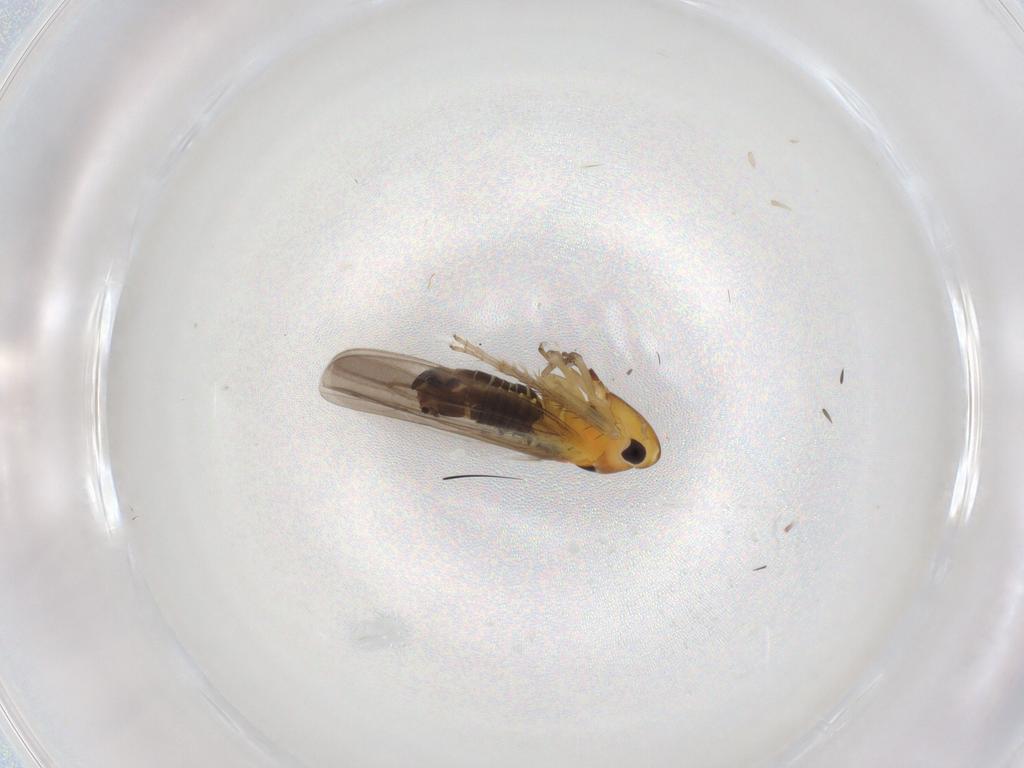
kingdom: Animalia
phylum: Arthropoda
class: Insecta
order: Hemiptera
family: Cicadellidae
